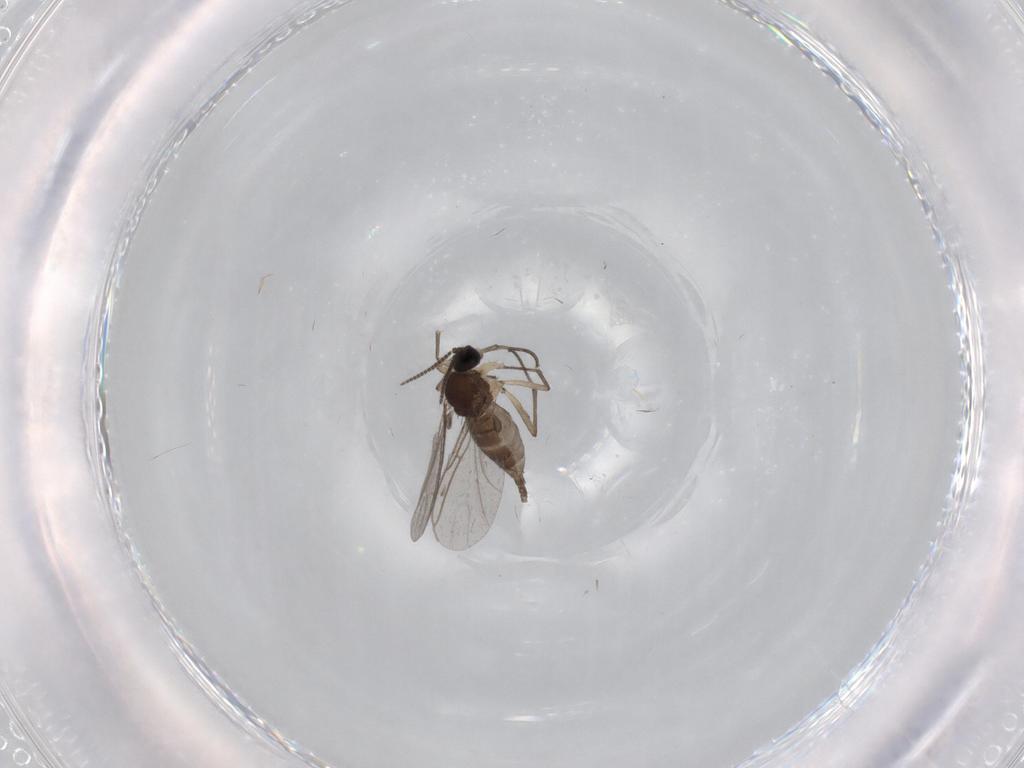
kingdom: Animalia
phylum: Arthropoda
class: Insecta
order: Diptera
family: Sciaridae
